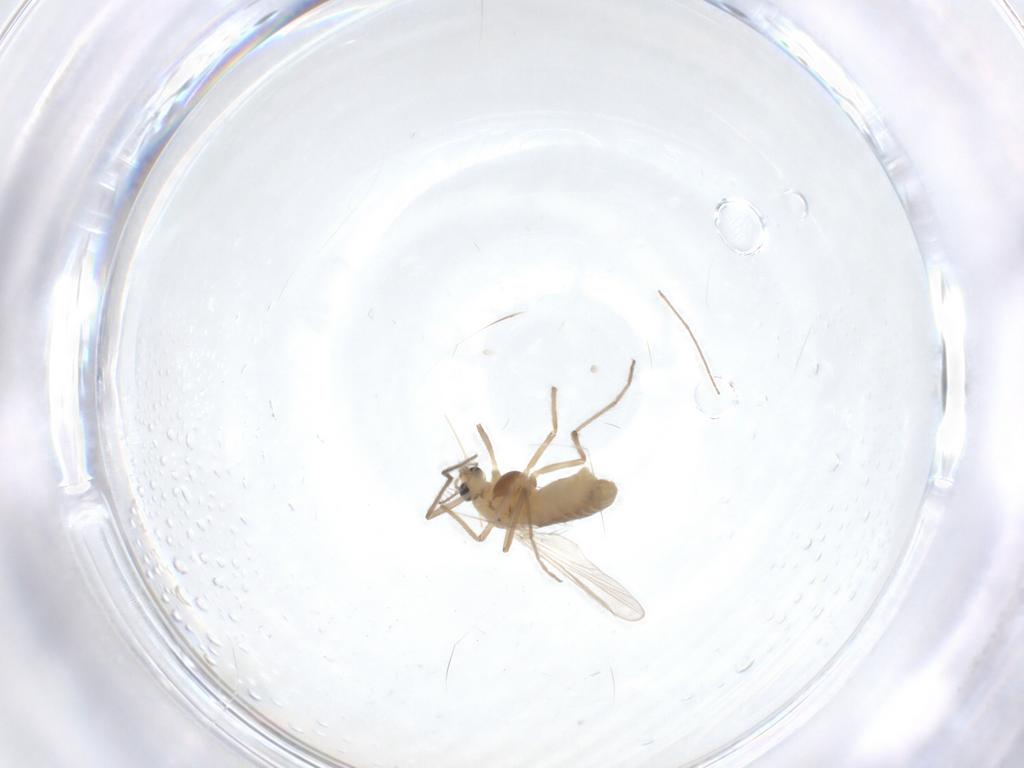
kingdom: Animalia
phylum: Arthropoda
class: Insecta
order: Diptera
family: Chironomidae
